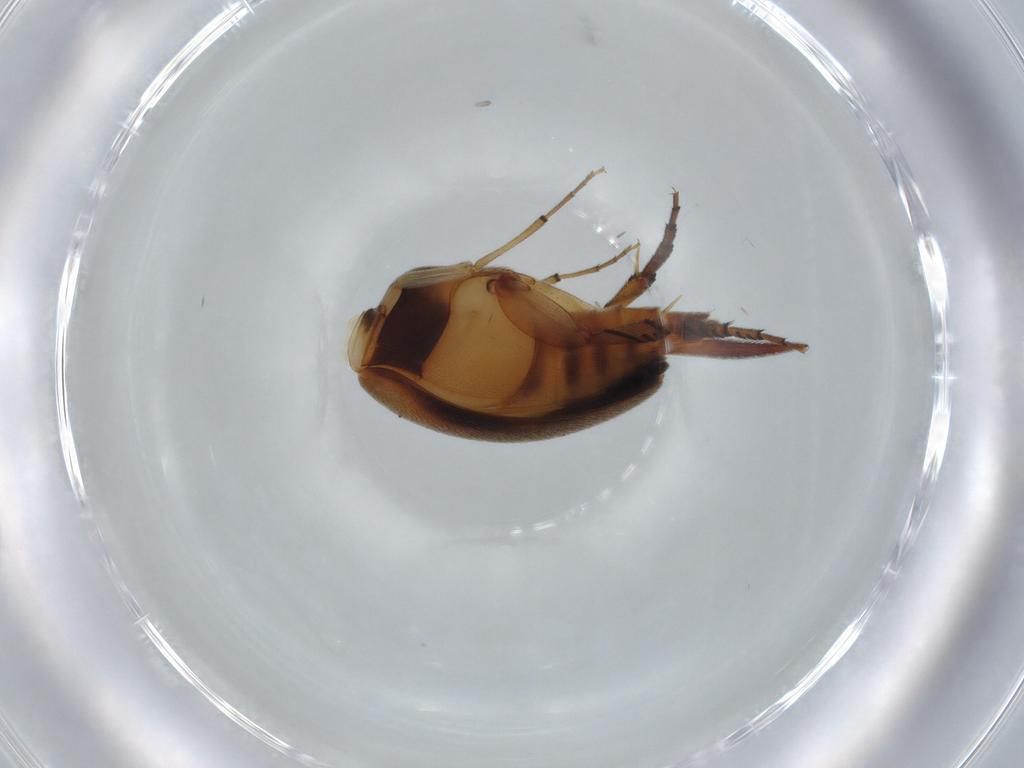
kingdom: Animalia
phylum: Arthropoda
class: Insecta
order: Coleoptera
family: Mordellidae
